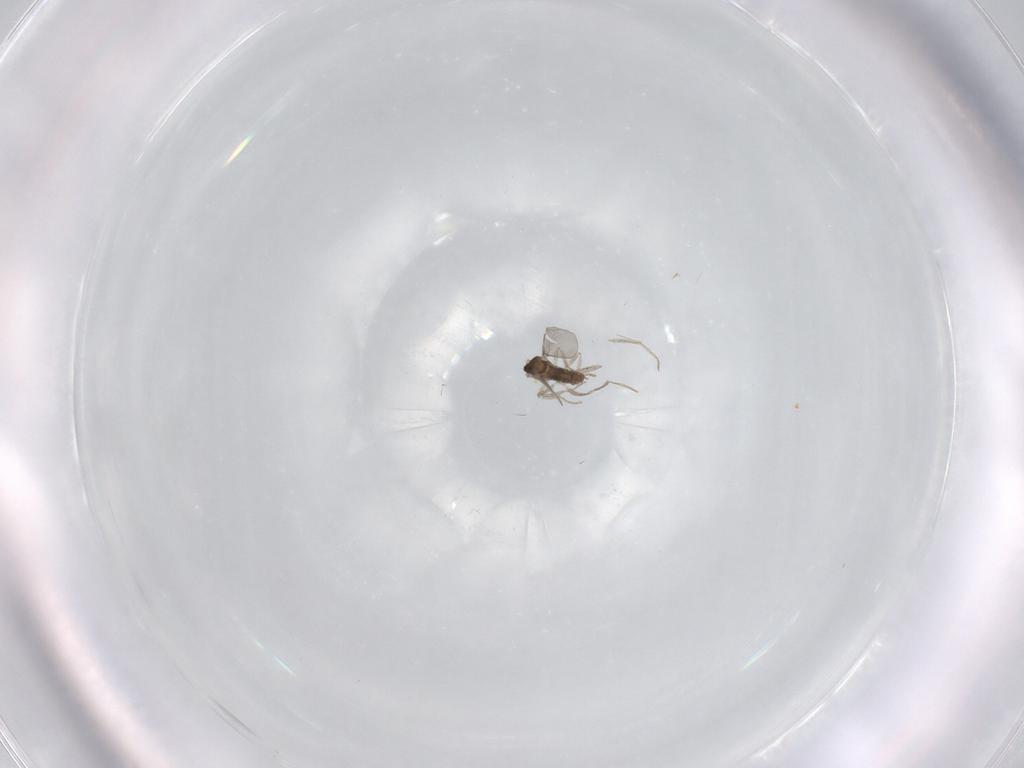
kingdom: Animalia
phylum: Arthropoda
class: Insecta
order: Diptera
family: Cecidomyiidae
